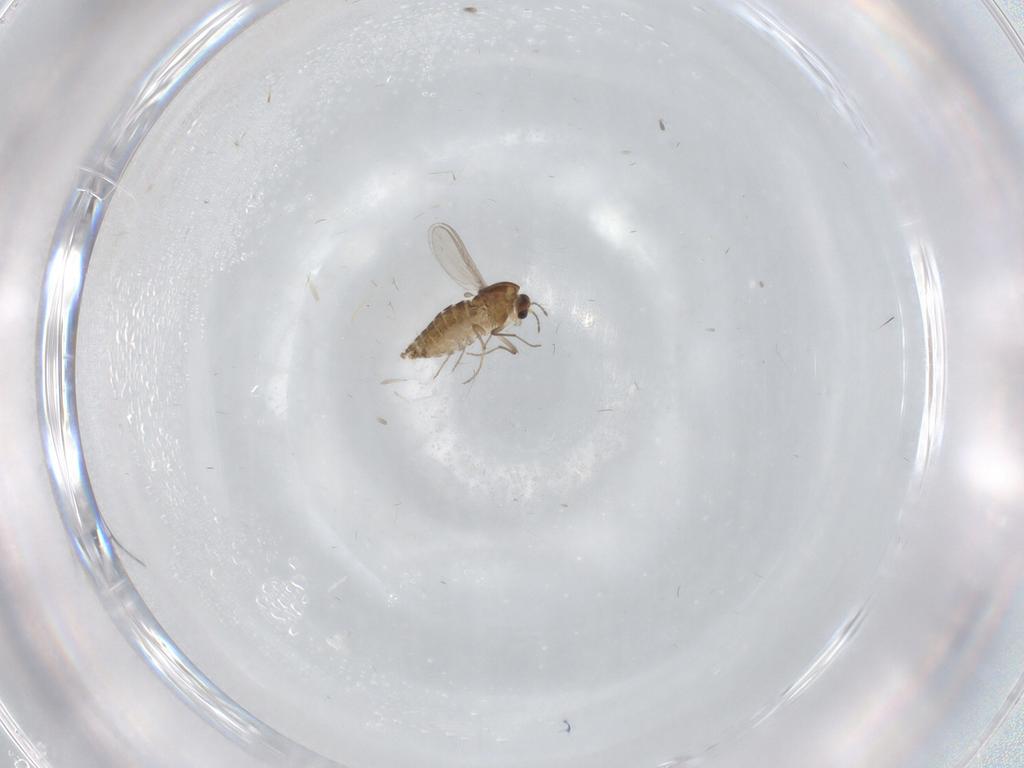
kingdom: Animalia
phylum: Arthropoda
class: Insecta
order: Diptera
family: Chironomidae
